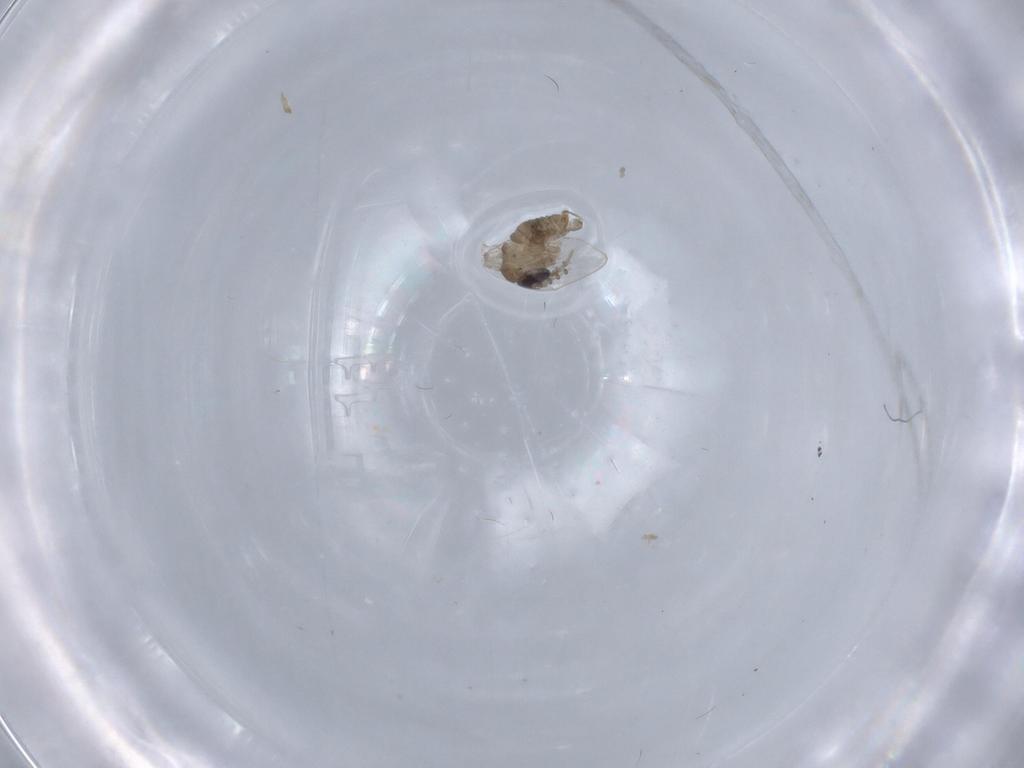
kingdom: Animalia
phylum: Arthropoda
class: Insecta
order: Diptera
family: Psychodidae
